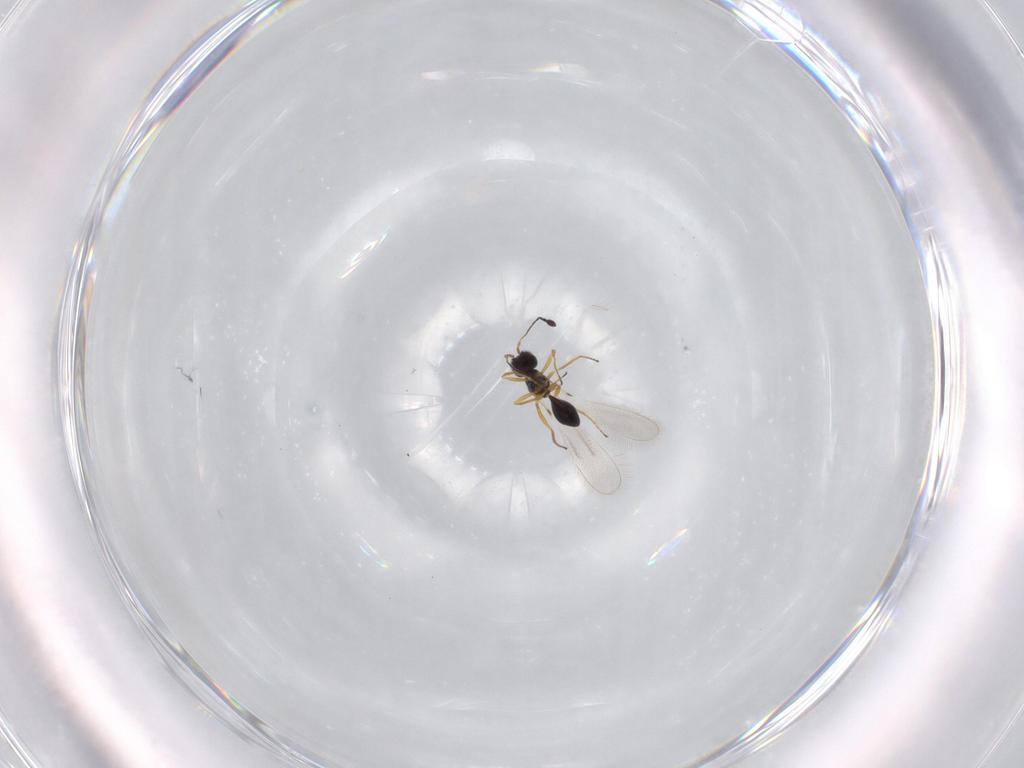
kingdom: Animalia
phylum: Arthropoda
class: Insecta
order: Hymenoptera
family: Mymaridae
